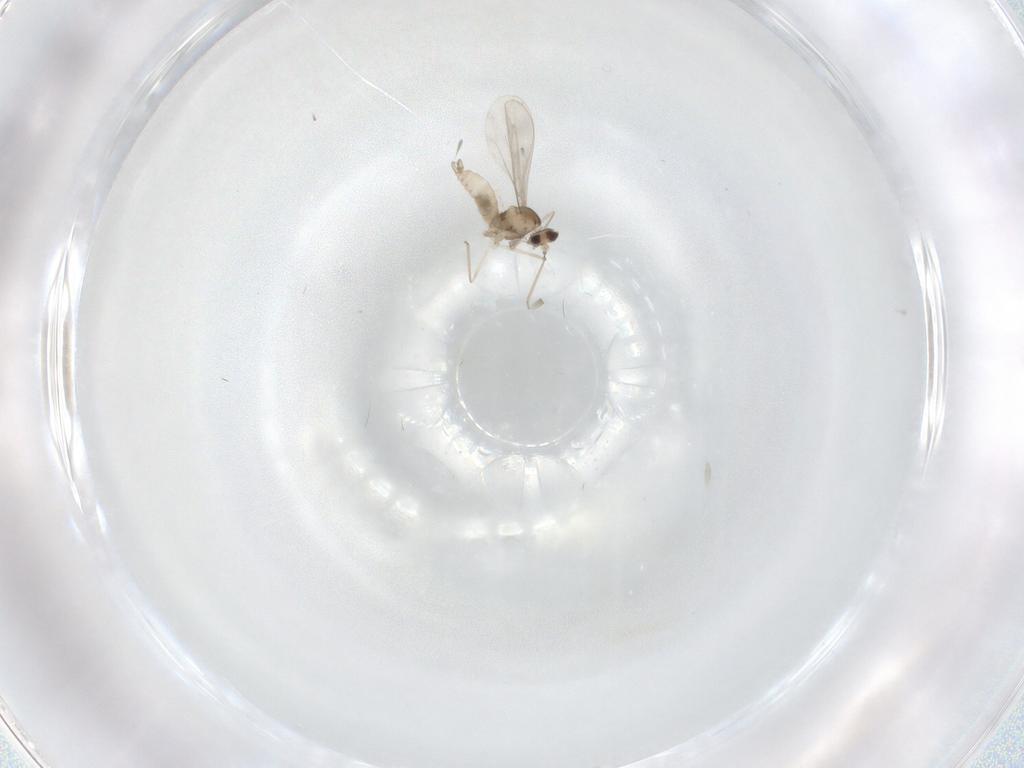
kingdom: Animalia
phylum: Arthropoda
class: Insecta
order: Diptera
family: Cecidomyiidae
